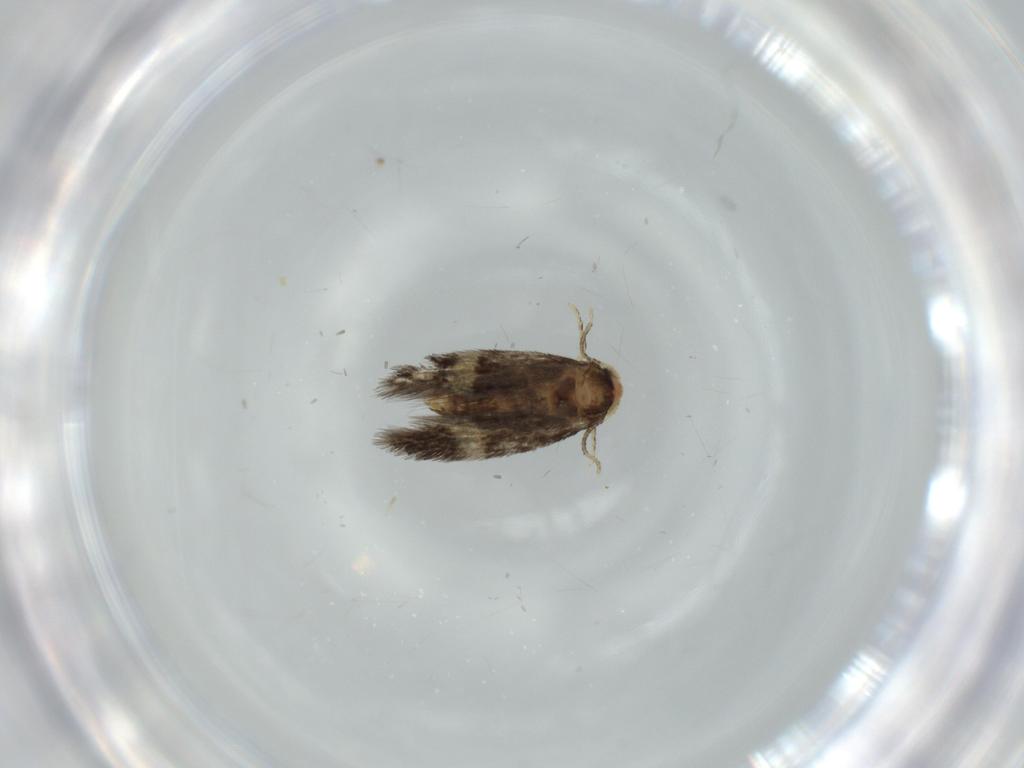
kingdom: Animalia
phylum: Arthropoda
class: Insecta
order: Lepidoptera
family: Nepticulidae
